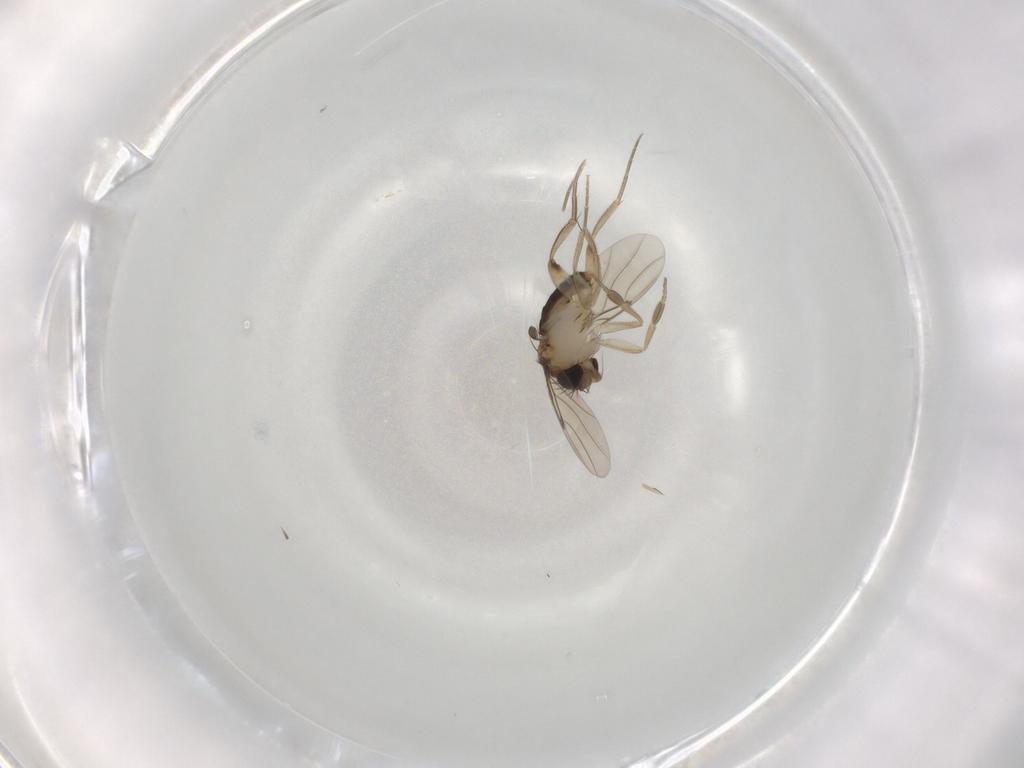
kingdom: Animalia
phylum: Arthropoda
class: Insecta
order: Diptera
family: Phoridae
